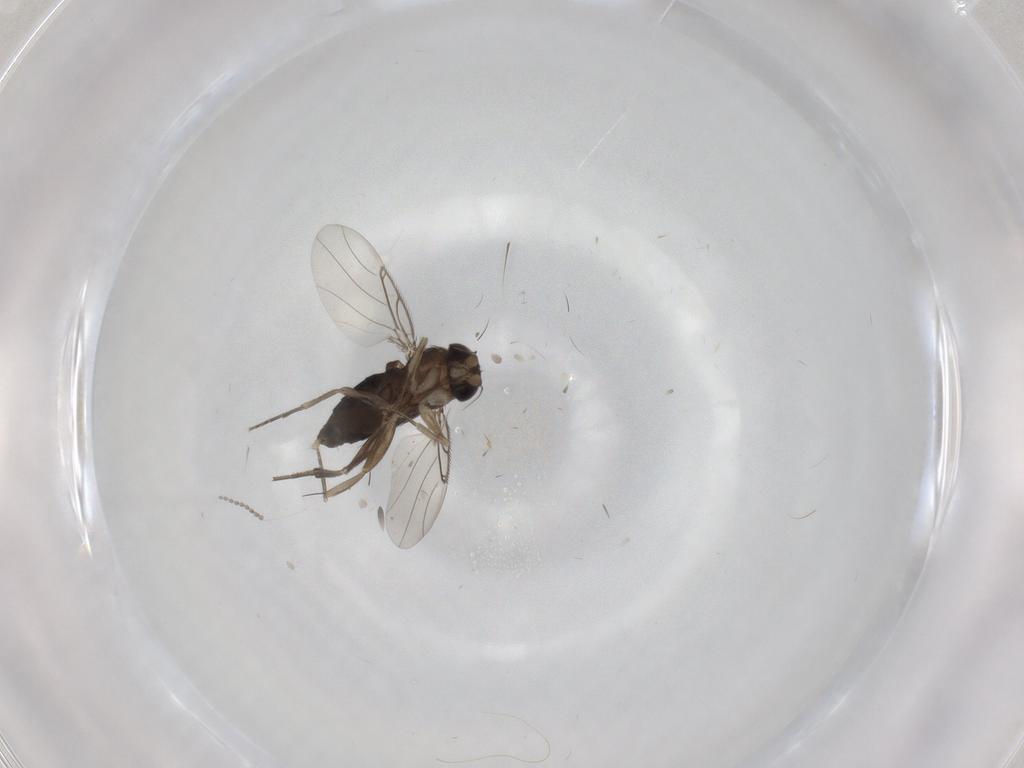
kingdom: Animalia
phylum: Arthropoda
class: Insecta
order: Diptera
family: Phoridae
